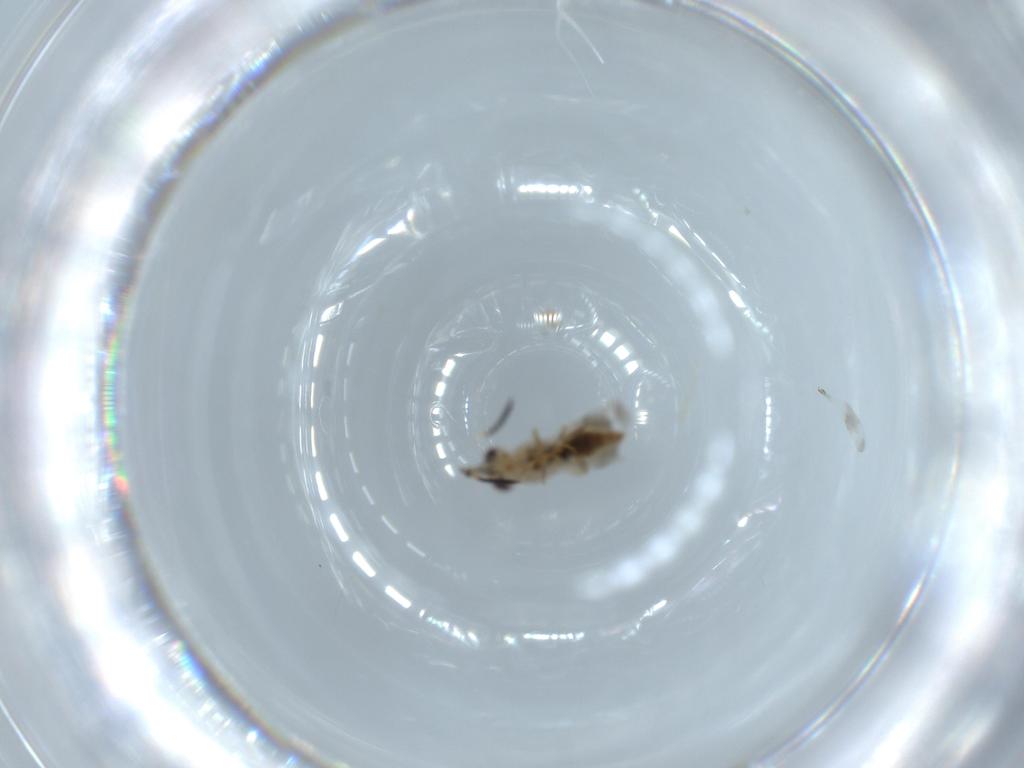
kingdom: Animalia
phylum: Arthropoda
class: Insecta
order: Hymenoptera
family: Scelionidae
